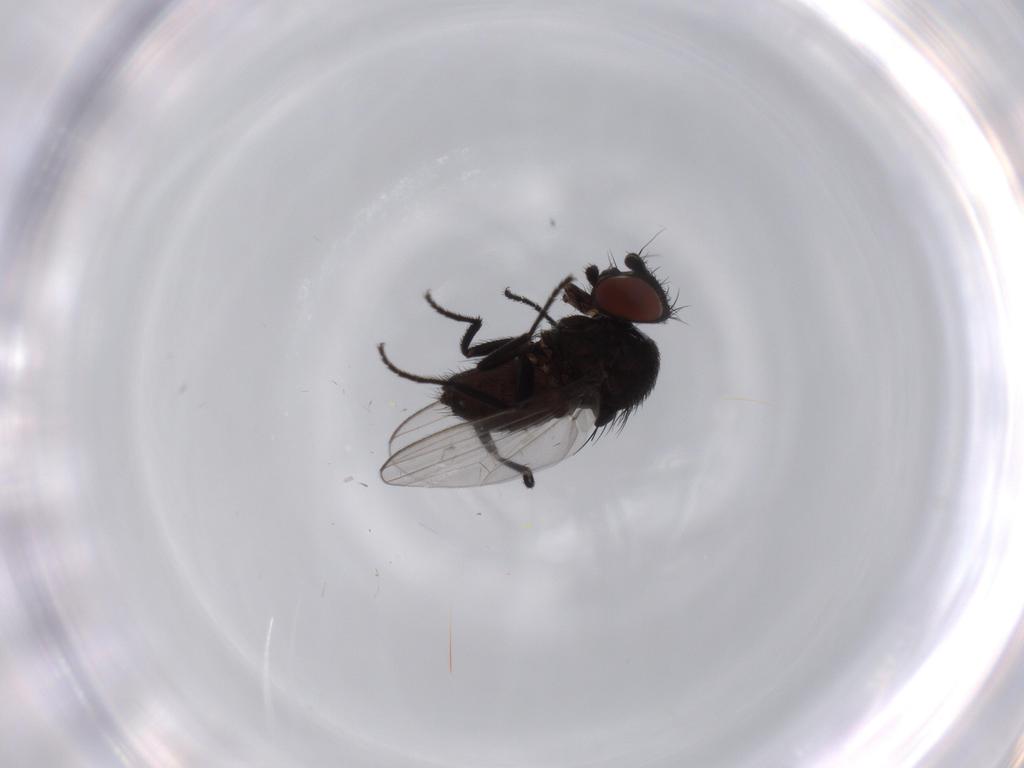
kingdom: Animalia
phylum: Arthropoda
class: Insecta
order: Diptera
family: Milichiidae
